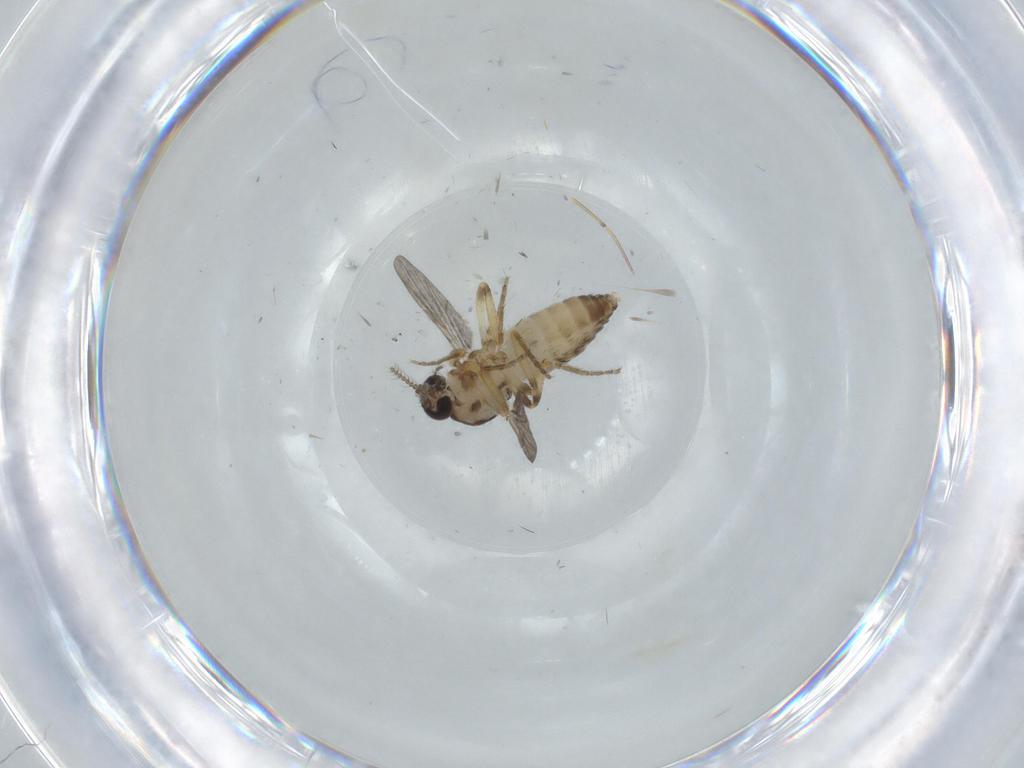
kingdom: Animalia
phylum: Arthropoda
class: Insecta
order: Diptera
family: Ceratopogonidae
